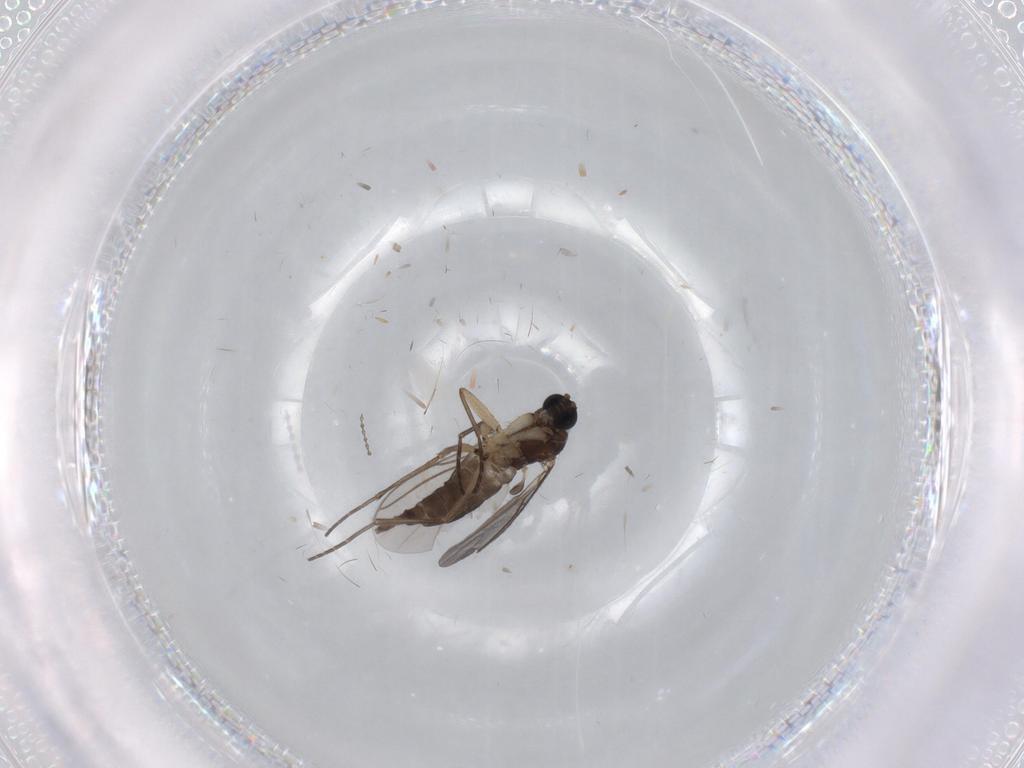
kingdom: Animalia
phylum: Arthropoda
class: Insecta
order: Diptera
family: Sciaridae
